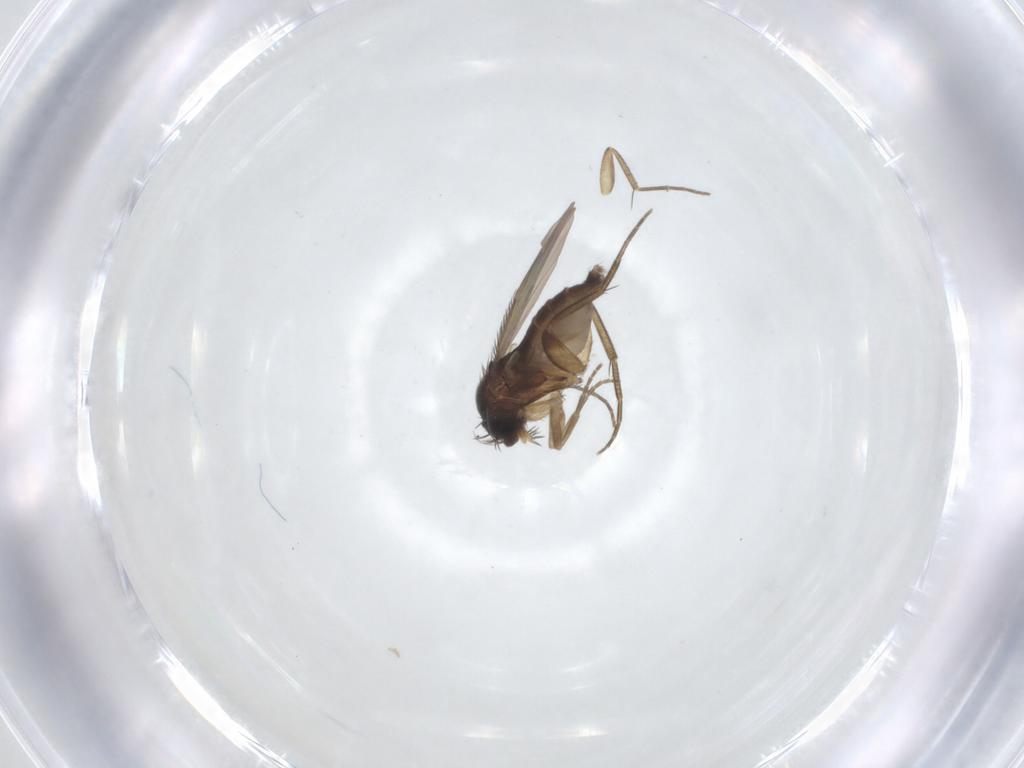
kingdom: Animalia
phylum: Arthropoda
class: Insecta
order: Diptera
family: Phoridae
